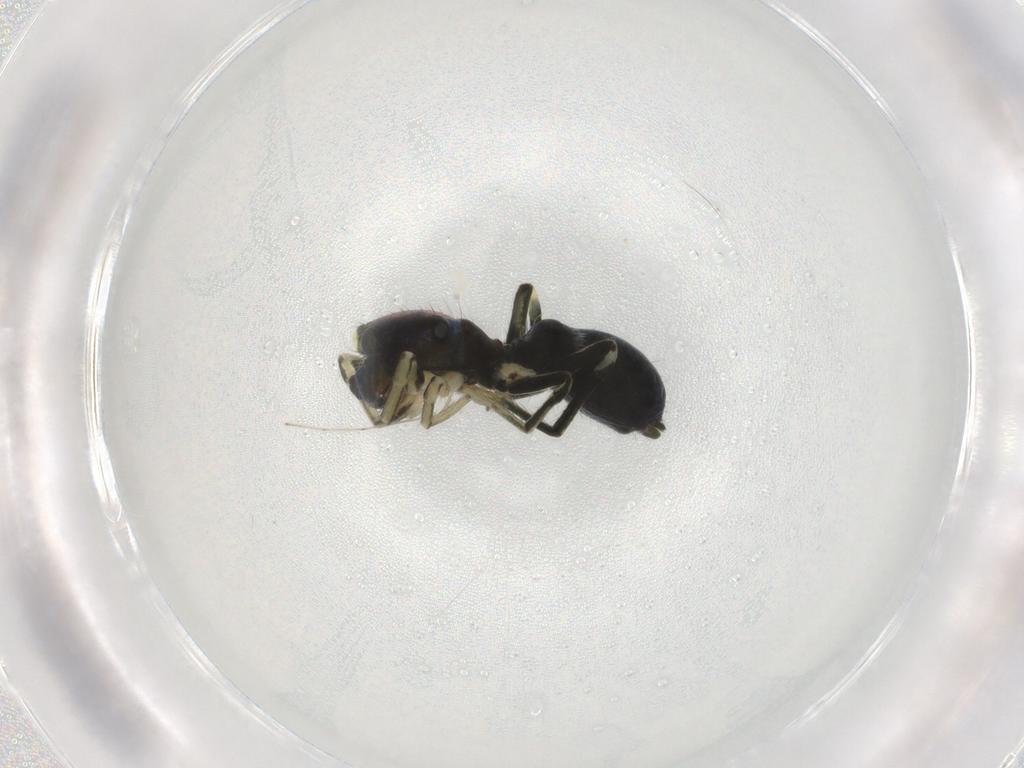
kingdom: Animalia
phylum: Arthropoda
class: Arachnida
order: Araneae
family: Salticidae
